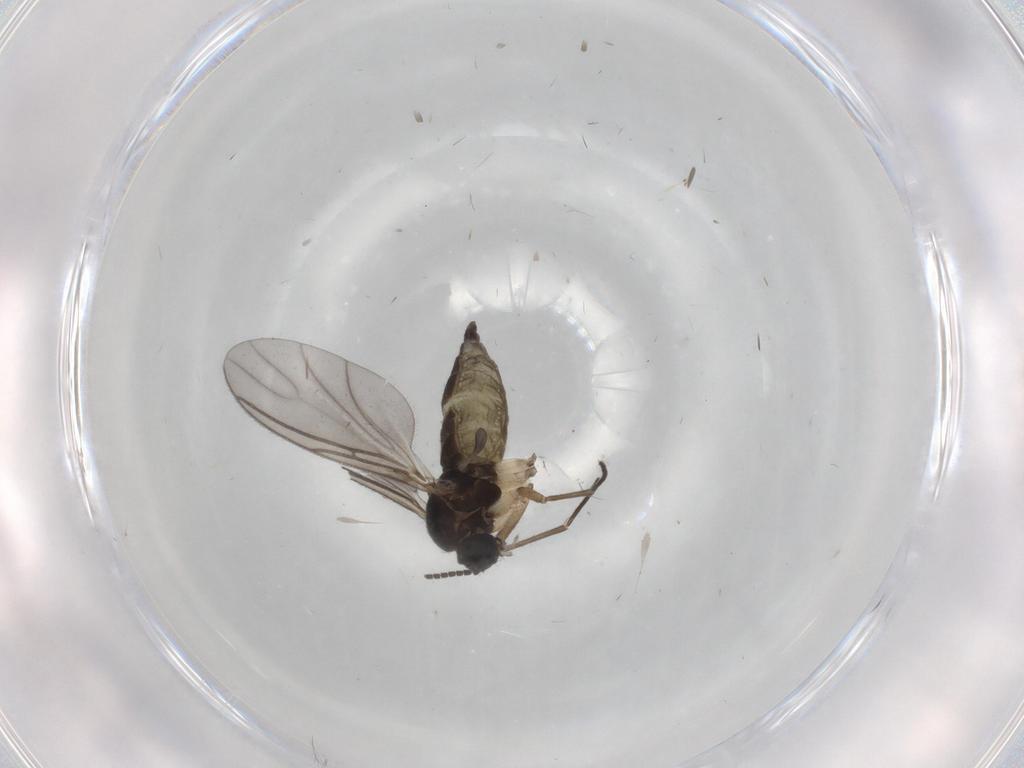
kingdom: Animalia
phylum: Arthropoda
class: Insecta
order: Diptera
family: Sciaridae
